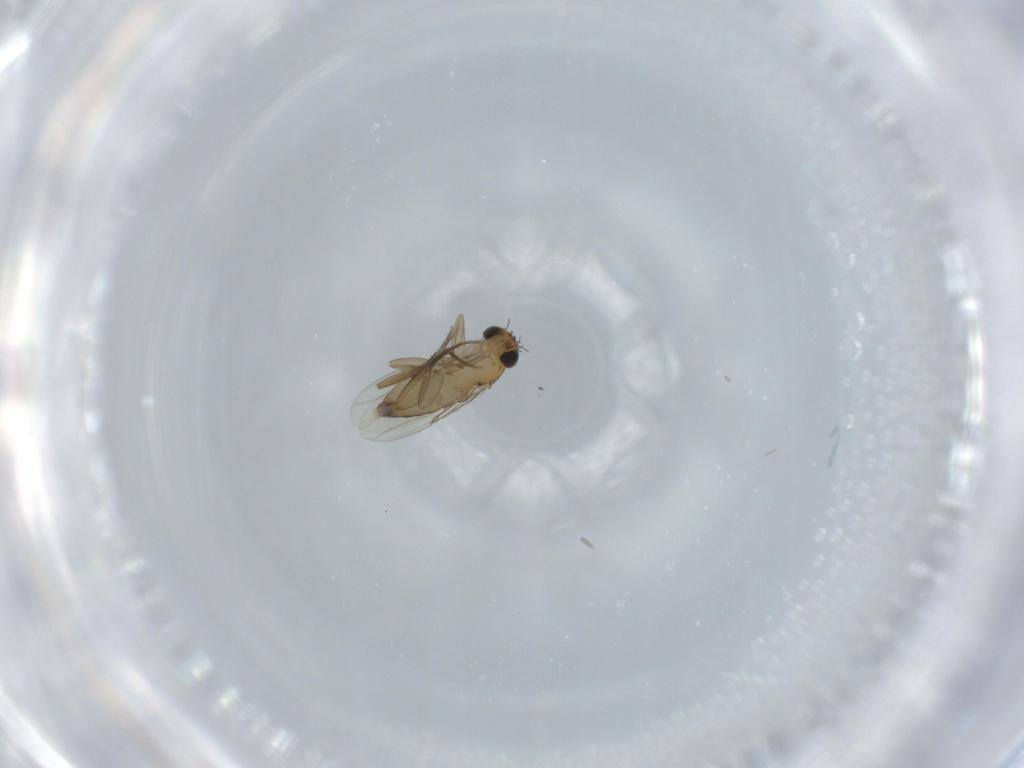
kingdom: Animalia
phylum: Arthropoda
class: Insecta
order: Diptera
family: Phoridae
